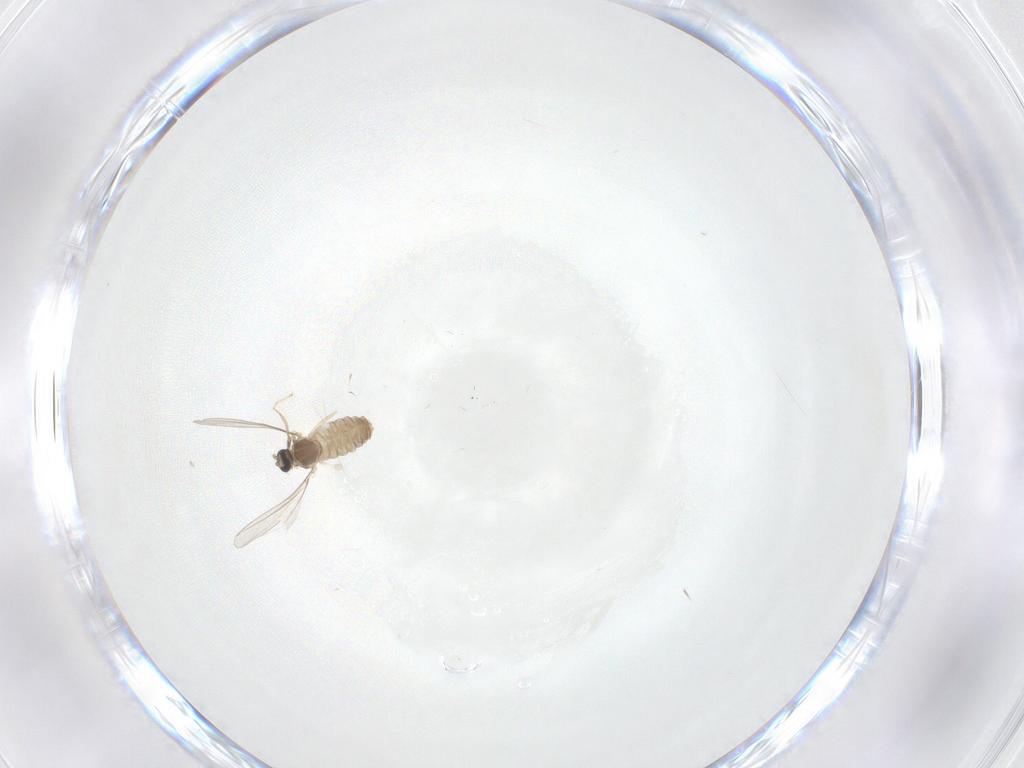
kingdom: Animalia
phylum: Arthropoda
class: Insecta
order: Diptera
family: Cecidomyiidae
